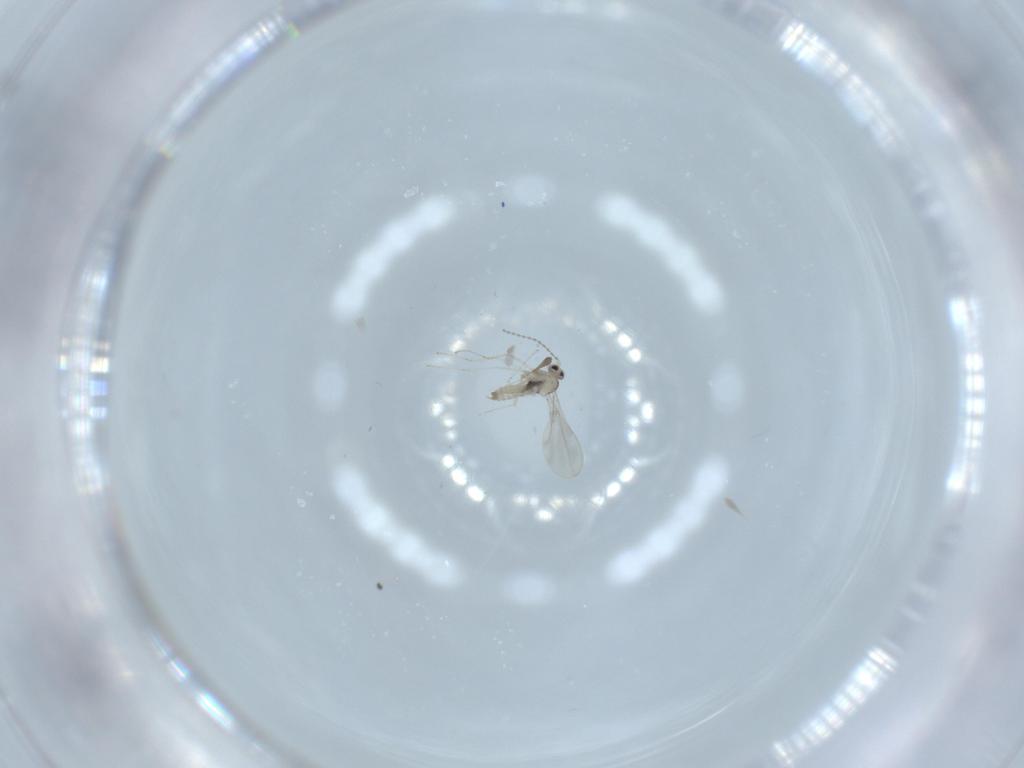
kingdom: Animalia
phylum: Arthropoda
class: Insecta
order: Diptera
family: Cecidomyiidae
